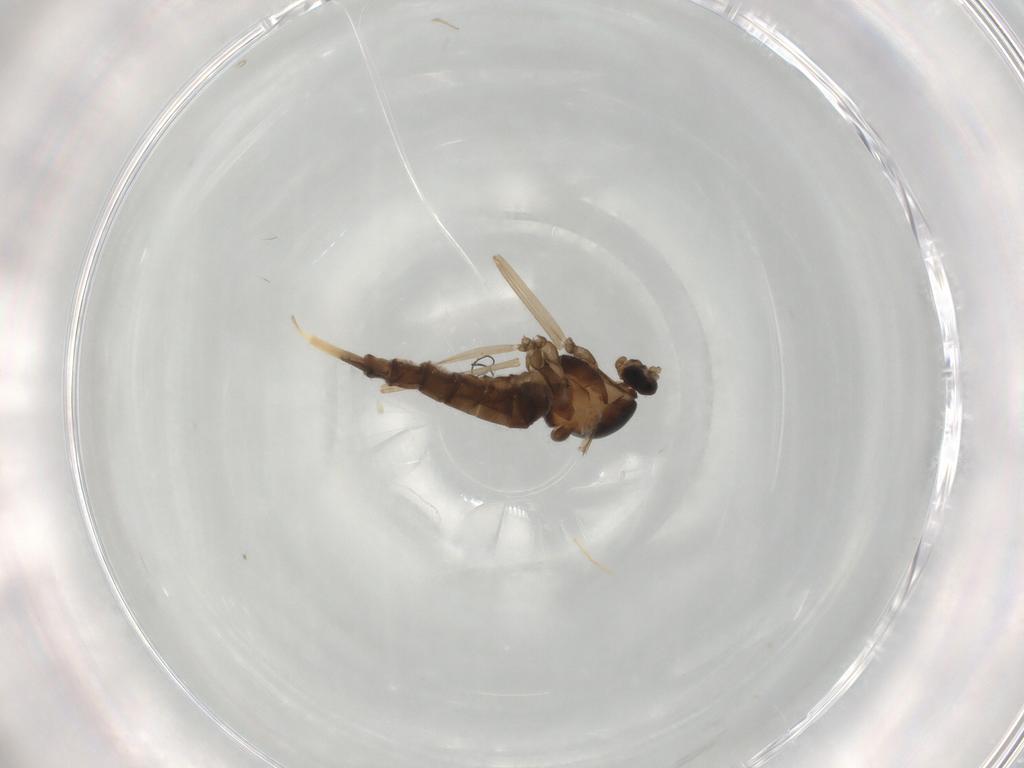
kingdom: Animalia
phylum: Arthropoda
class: Insecta
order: Diptera
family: Cecidomyiidae
